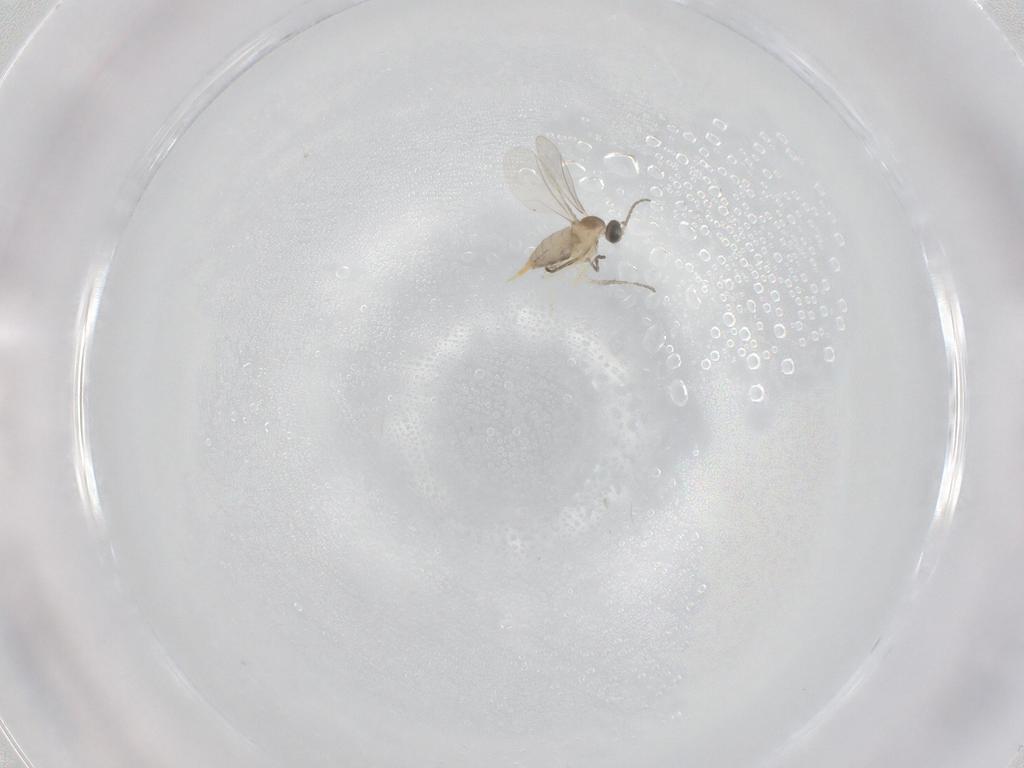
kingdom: Animalia
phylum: Arthropoda
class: Insecta
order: Diptera
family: Cecidomyiidae
